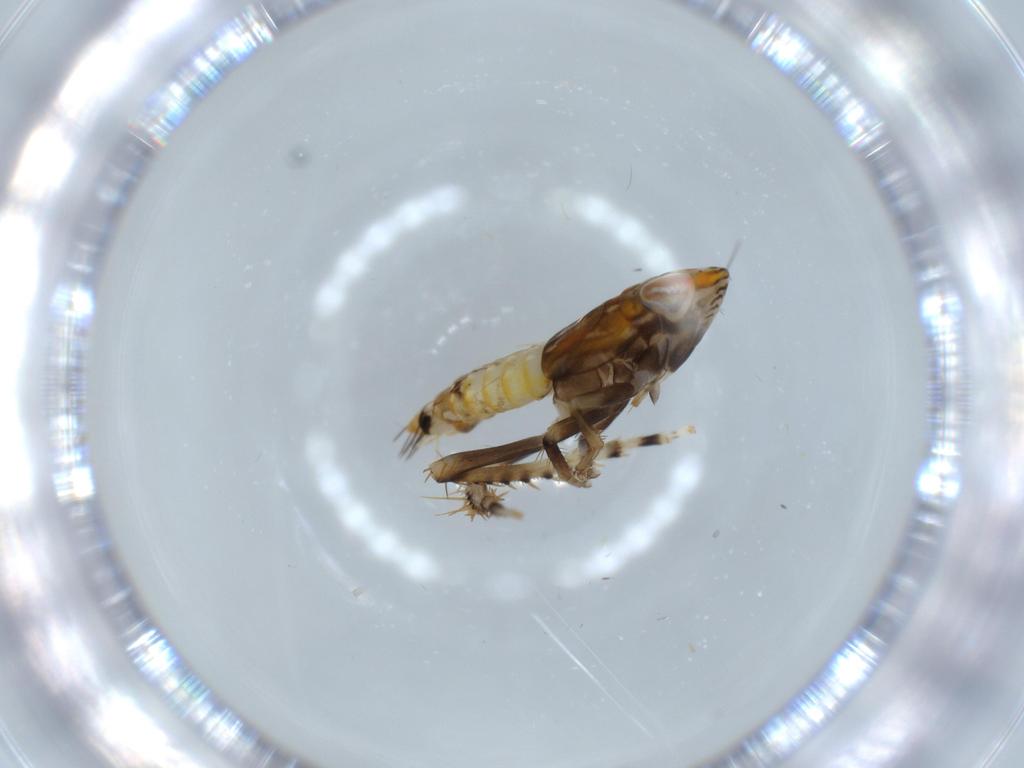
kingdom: Animalia
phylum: Arthropoda
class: Insecta
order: Hemiptera
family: Cicadellidae
